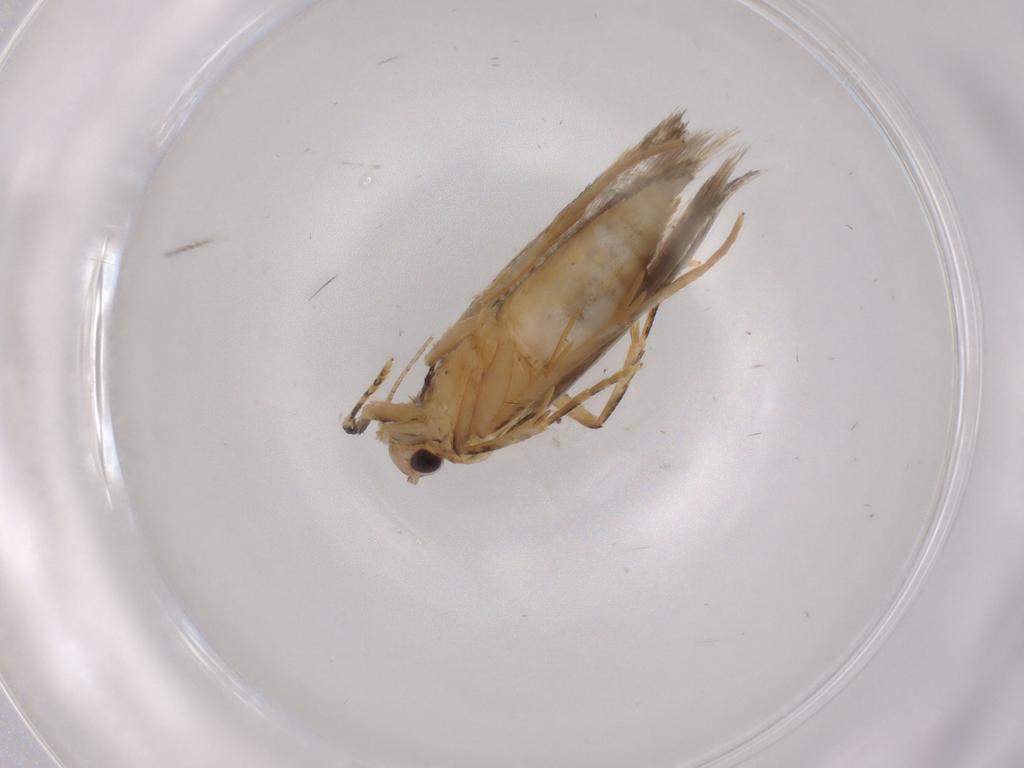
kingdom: Animalia
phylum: Arthropoda
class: Insecta
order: Lepidoptera
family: Autostichidae
